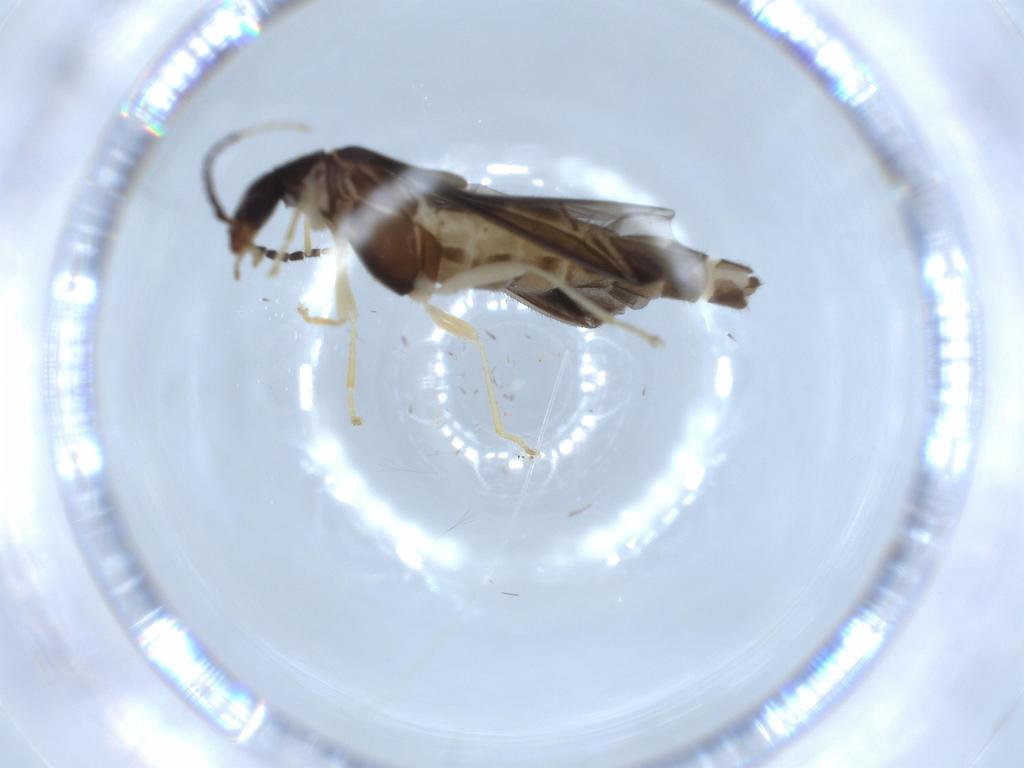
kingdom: Animalia
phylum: Arthropoda
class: Insecta
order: Coleoptera
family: Cantharidae
